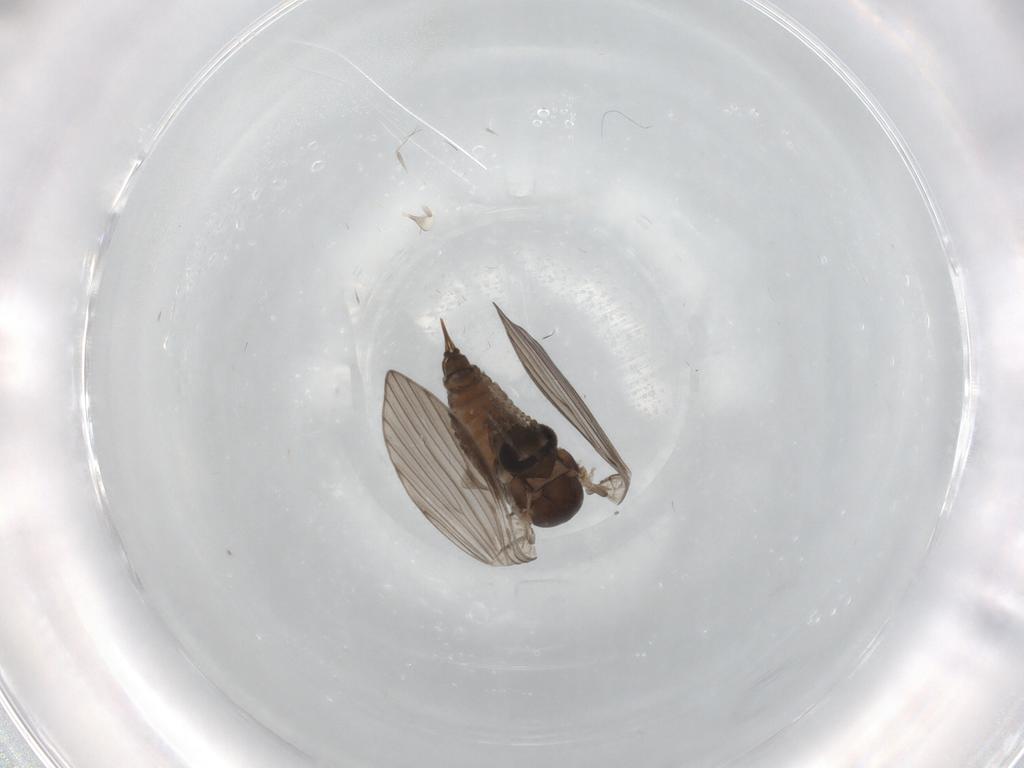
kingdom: Animalia
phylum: Arthropoda
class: Insecta
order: Diptera
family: Psychodidae
